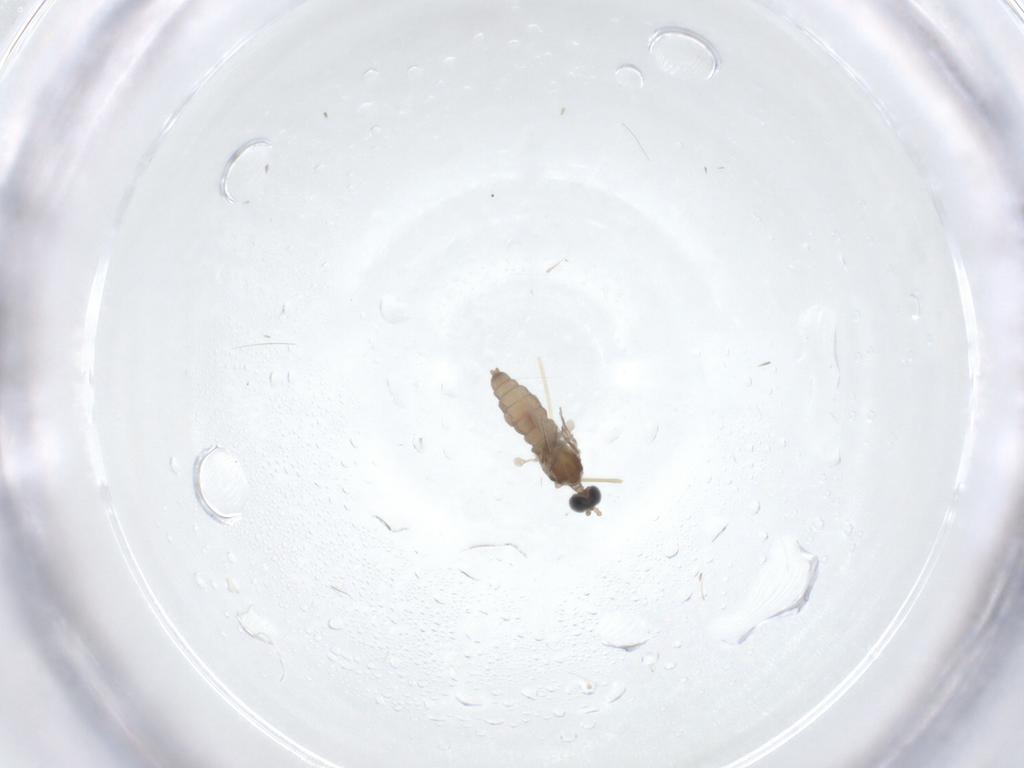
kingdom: Animalia
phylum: Arthropoda
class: Insecta
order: Diptera
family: Cecidomyiidae
